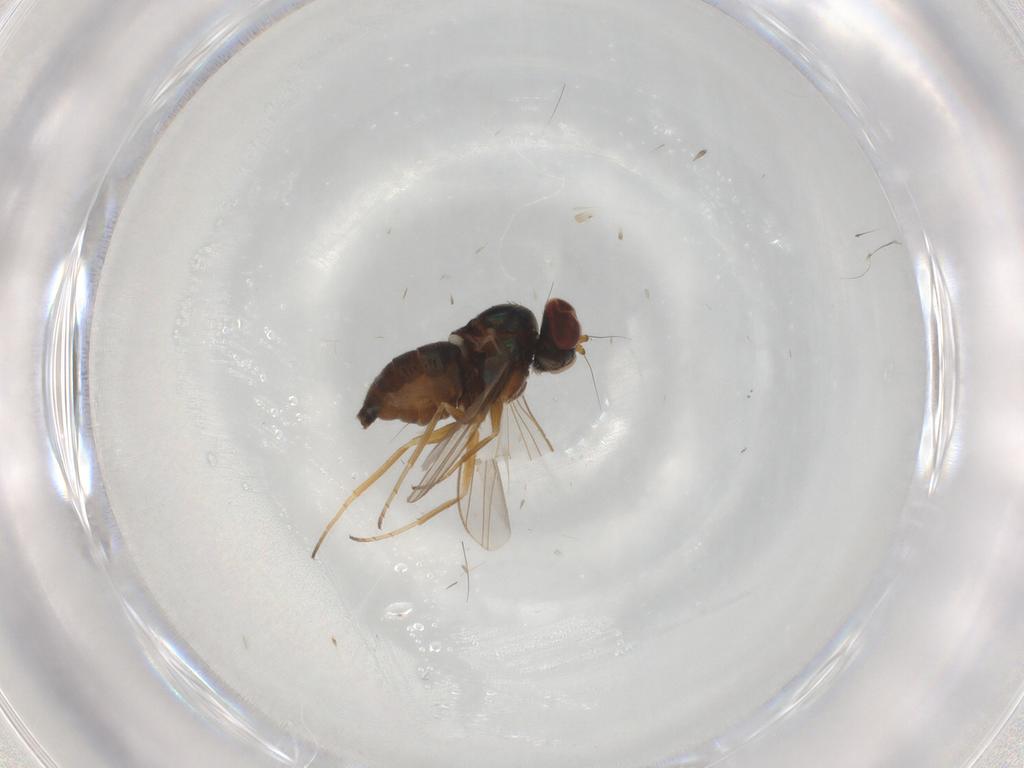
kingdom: Animalia
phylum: Arthropoda
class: Insecta
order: Diptera
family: Dolichopodidae
